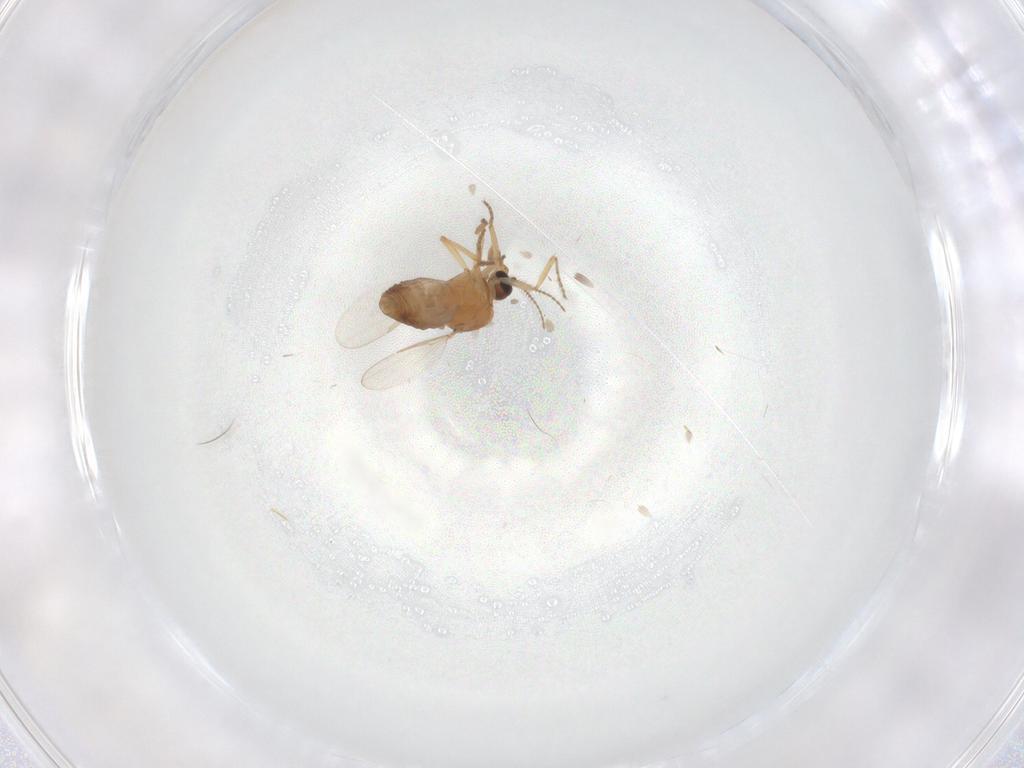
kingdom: Animalia
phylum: Arthropoda
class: Insecta
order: Diptera
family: Ceratopogonidae
